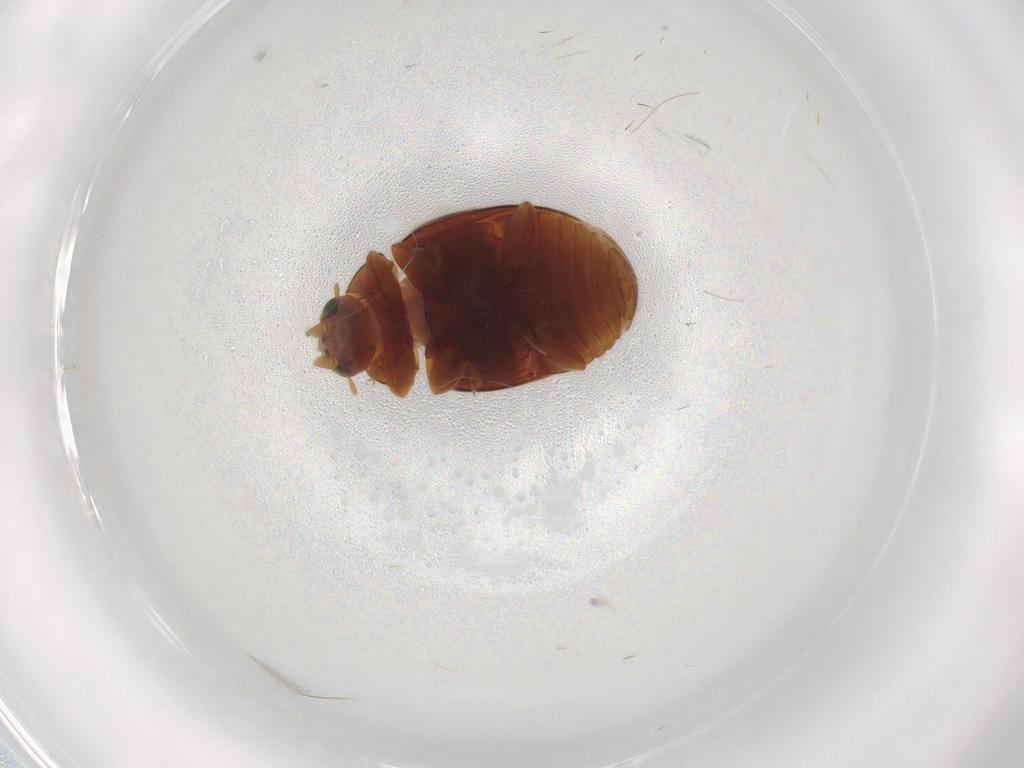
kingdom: Animalia
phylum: Arthropoda
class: Insecta
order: Coleoptera
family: Coccinellidae
